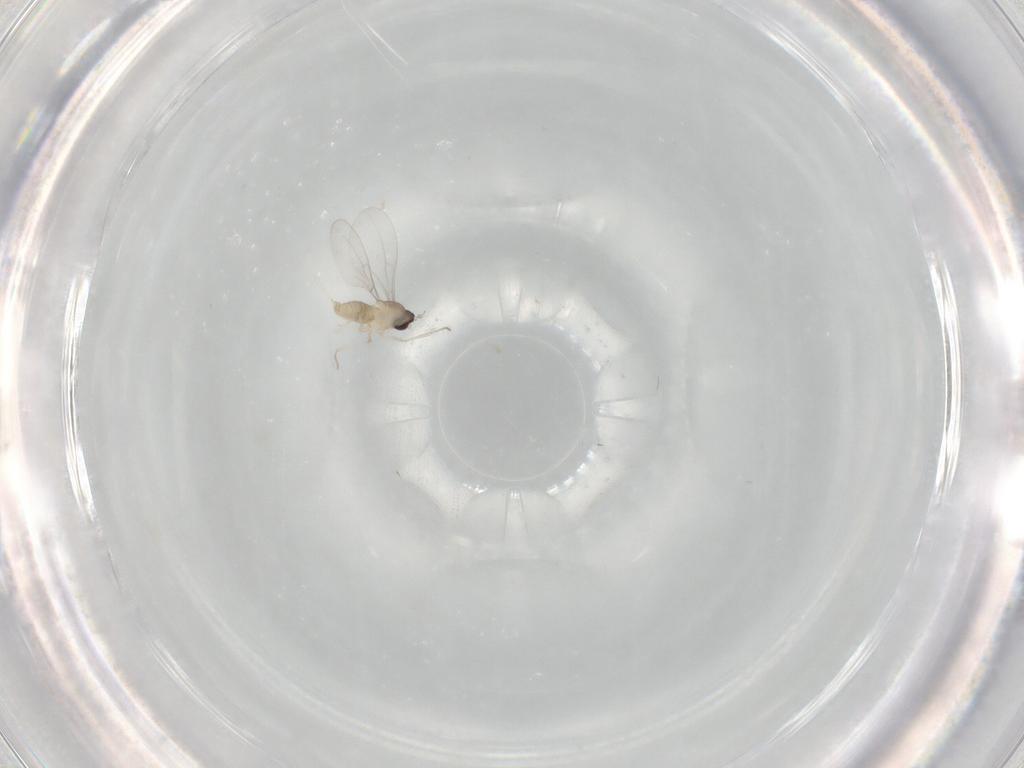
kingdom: Animalia
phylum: Arthropoda
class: Insecta
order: Diptera
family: Cecidomyiidae
